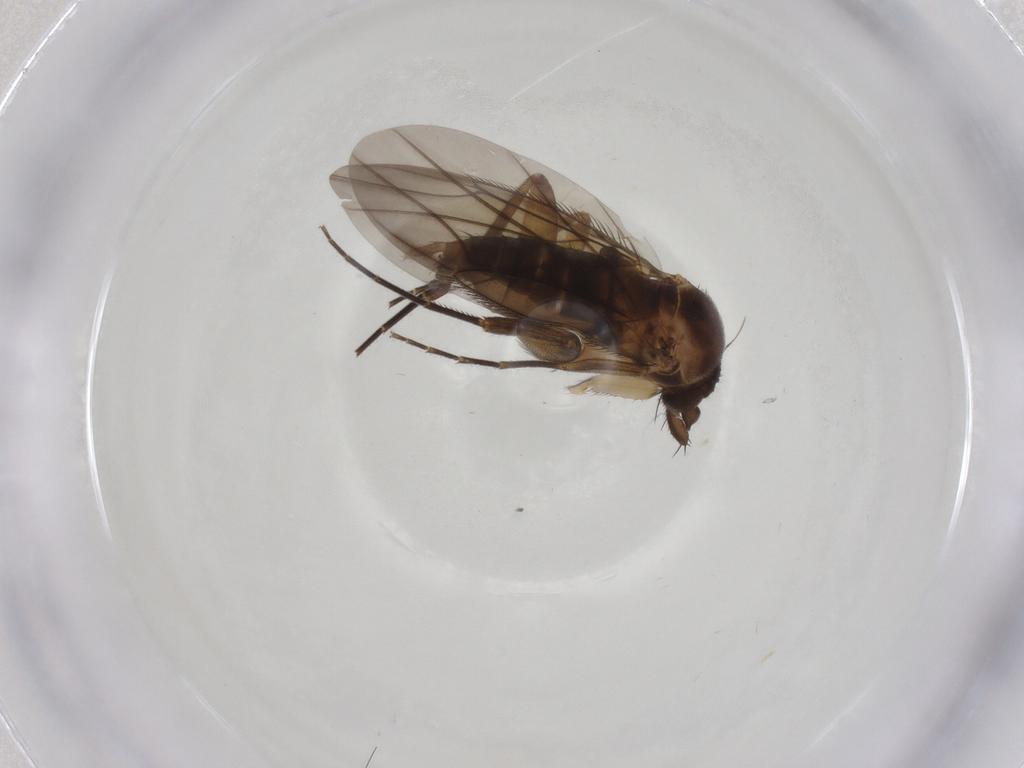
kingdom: Animalia
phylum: Arthropoda
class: Insecta
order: Diptera
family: Phoridae
